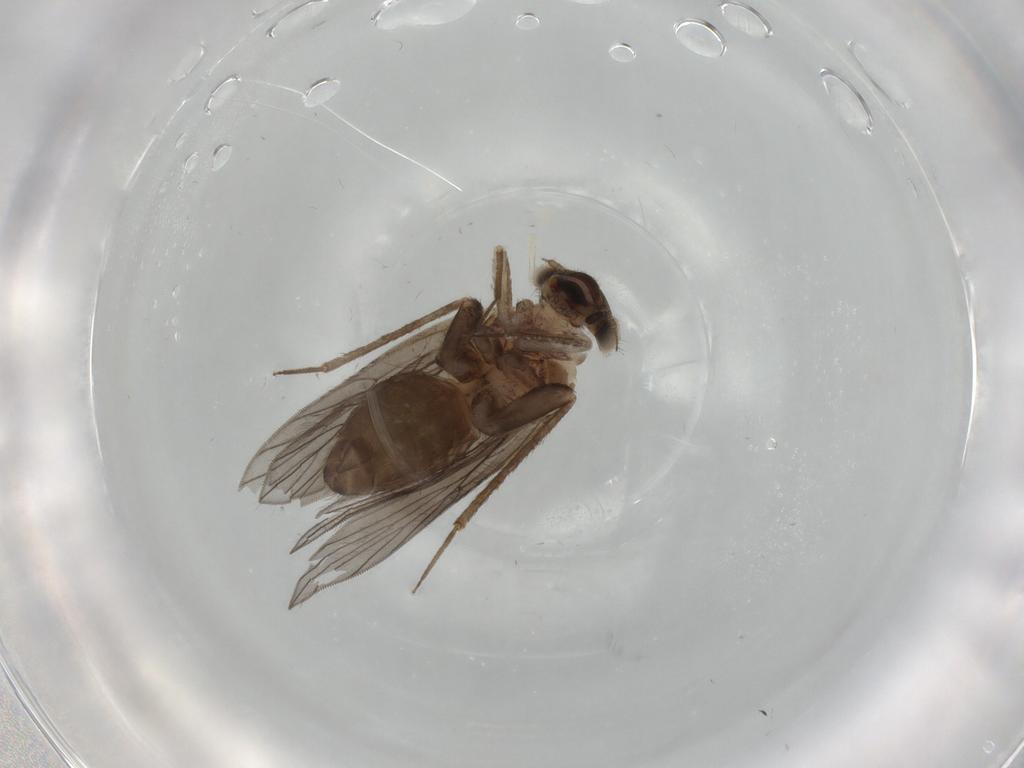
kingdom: Animalia
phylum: Arthropoda
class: Insecta
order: Psocodea
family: Lepidopsocidae
